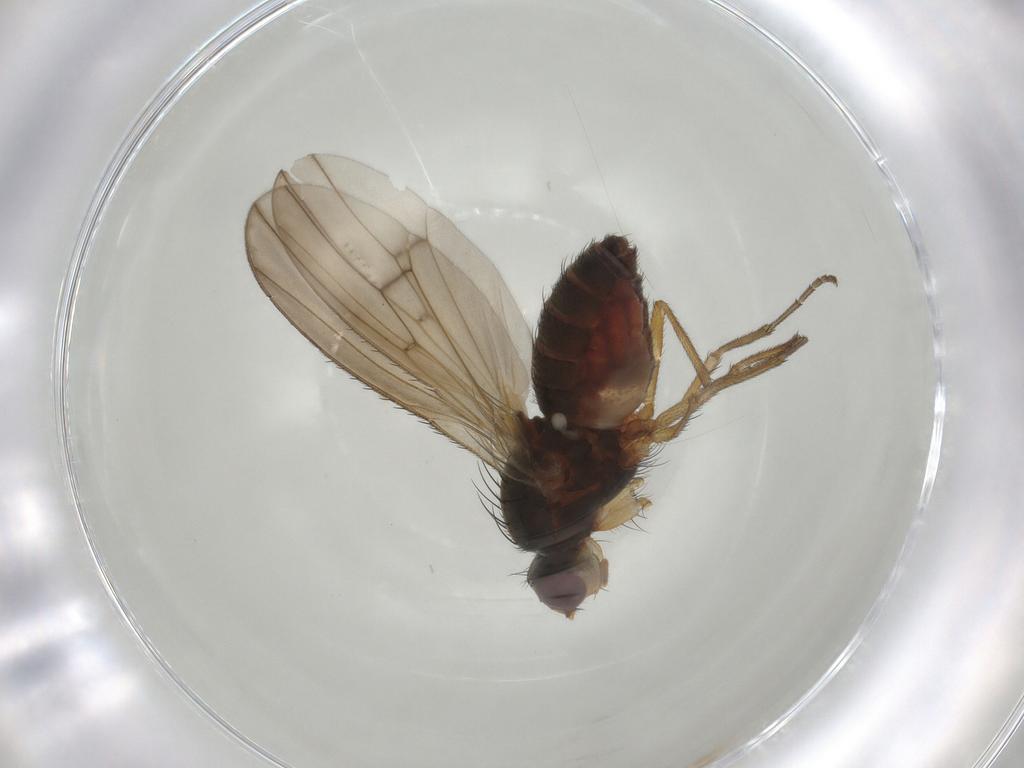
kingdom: Animalia
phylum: Arthropoda
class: Insecta
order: Diptera
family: Heleomyzidae
